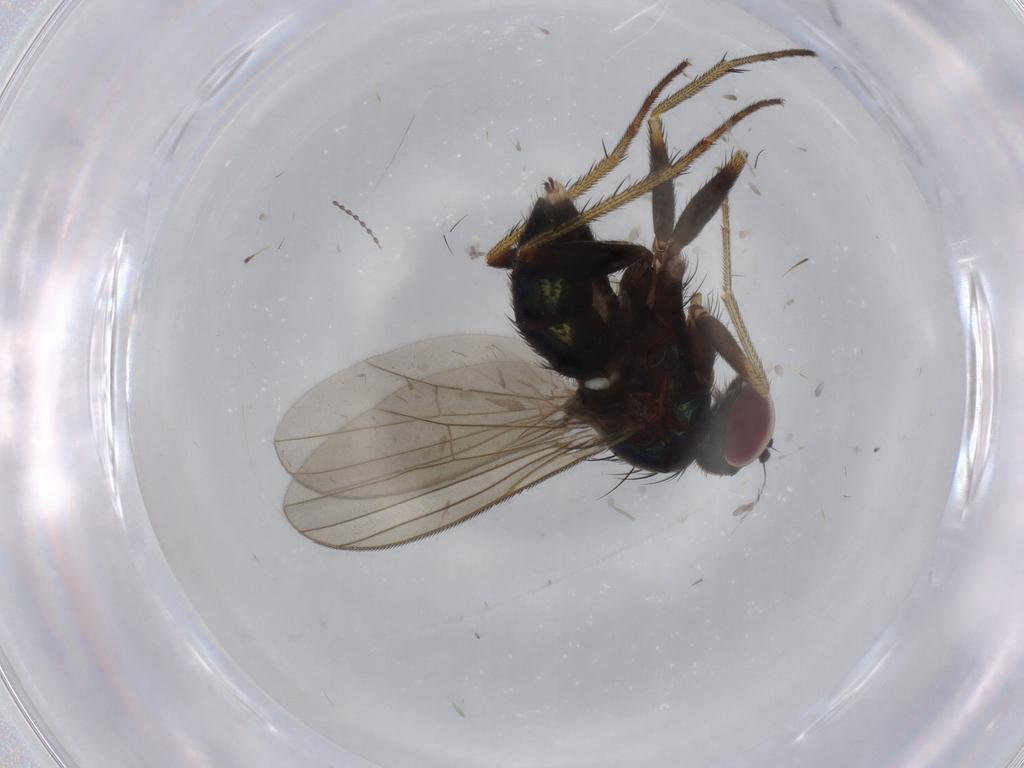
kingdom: Animalia
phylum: Arthropoda
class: Insecta
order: Diptera
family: Dolichopodidae
